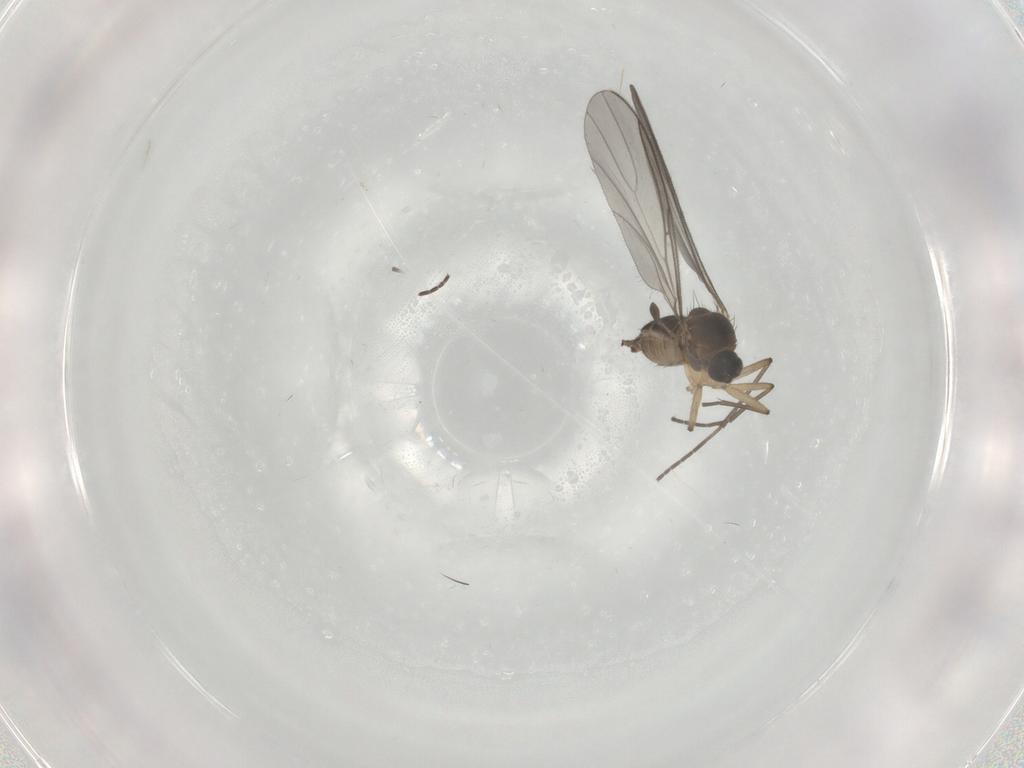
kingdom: Animalia
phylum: Arthropoda
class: Insecta
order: Diptera
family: Sciaridae
